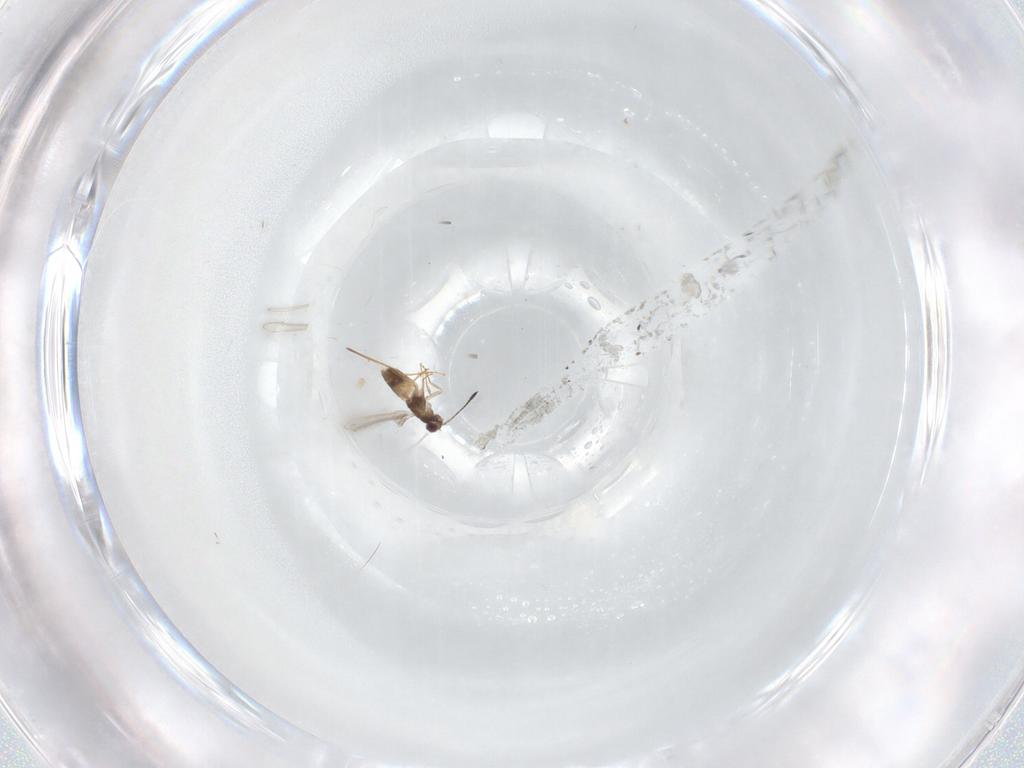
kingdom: Animalia
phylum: Arthropoda
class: Insecta
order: Hymenoptera
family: Mymaridae
